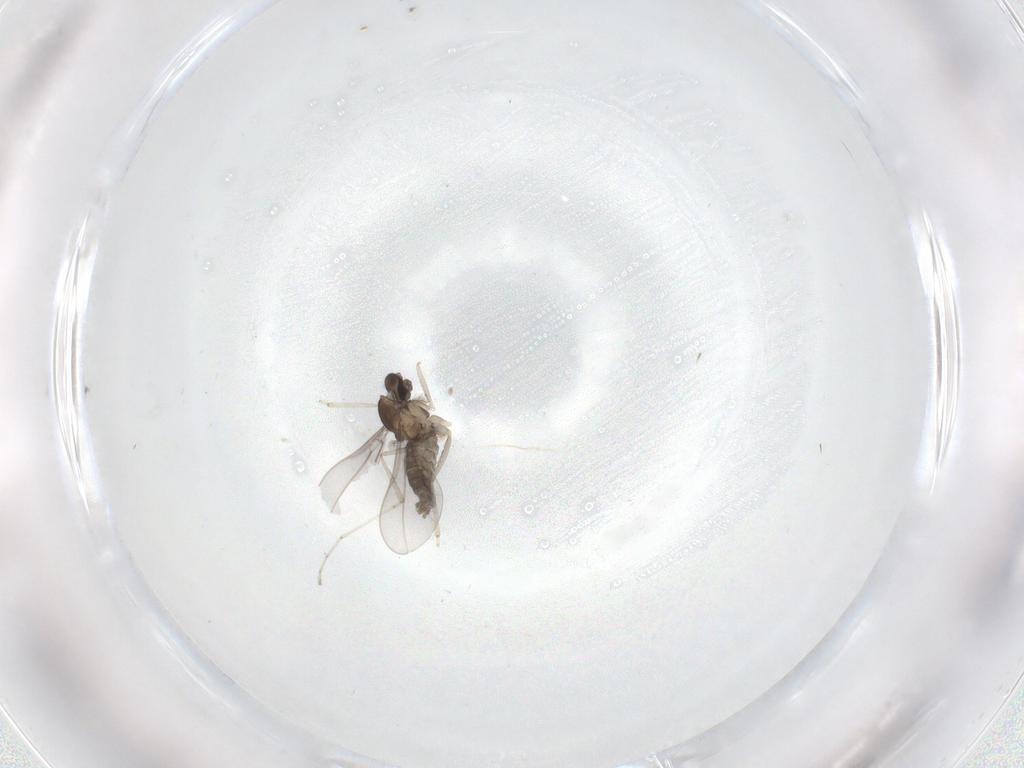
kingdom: Animalia
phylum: Arthropoda
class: Insecta
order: Diptera
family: Cecidomyiidae
